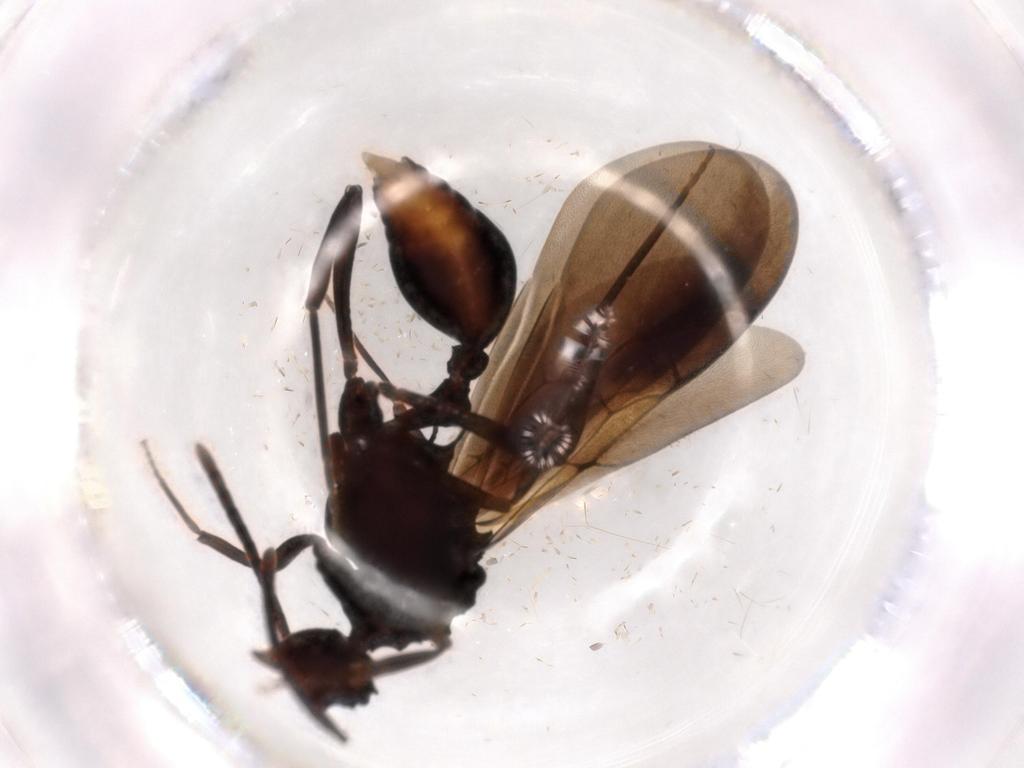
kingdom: Animalia
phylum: Arthropoda
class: Insecta
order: Hymenoptera
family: Formicidae
